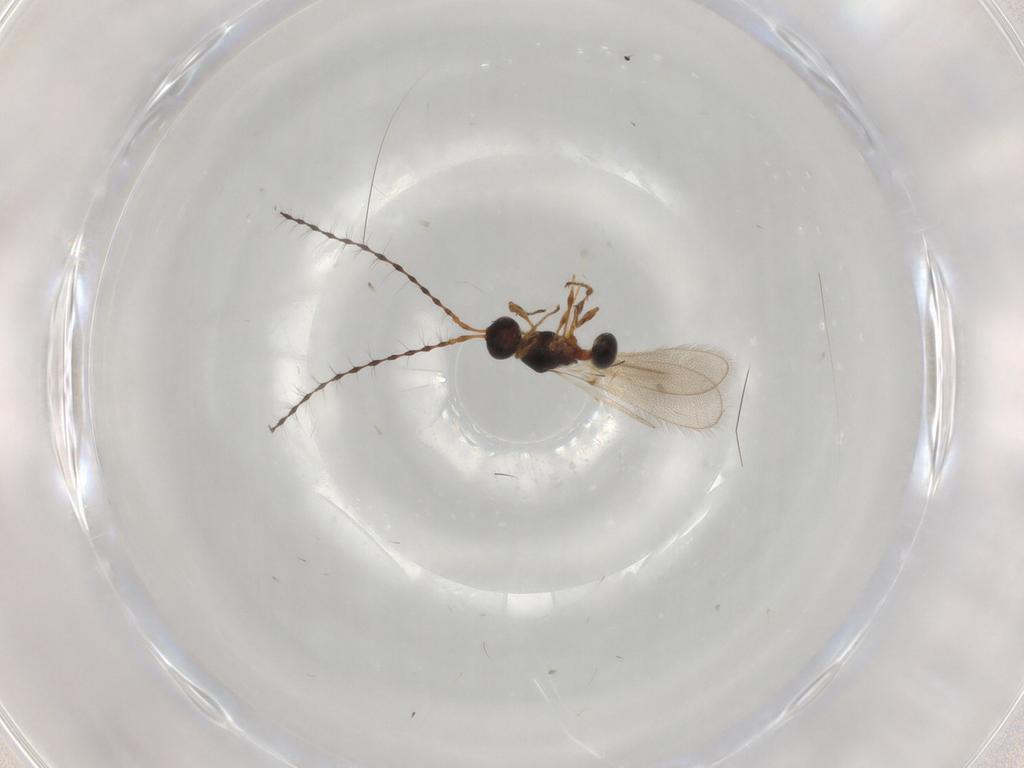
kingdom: Animalia
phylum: Arthropoda
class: Insecta
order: Hymenoptera
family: Diapriidae
